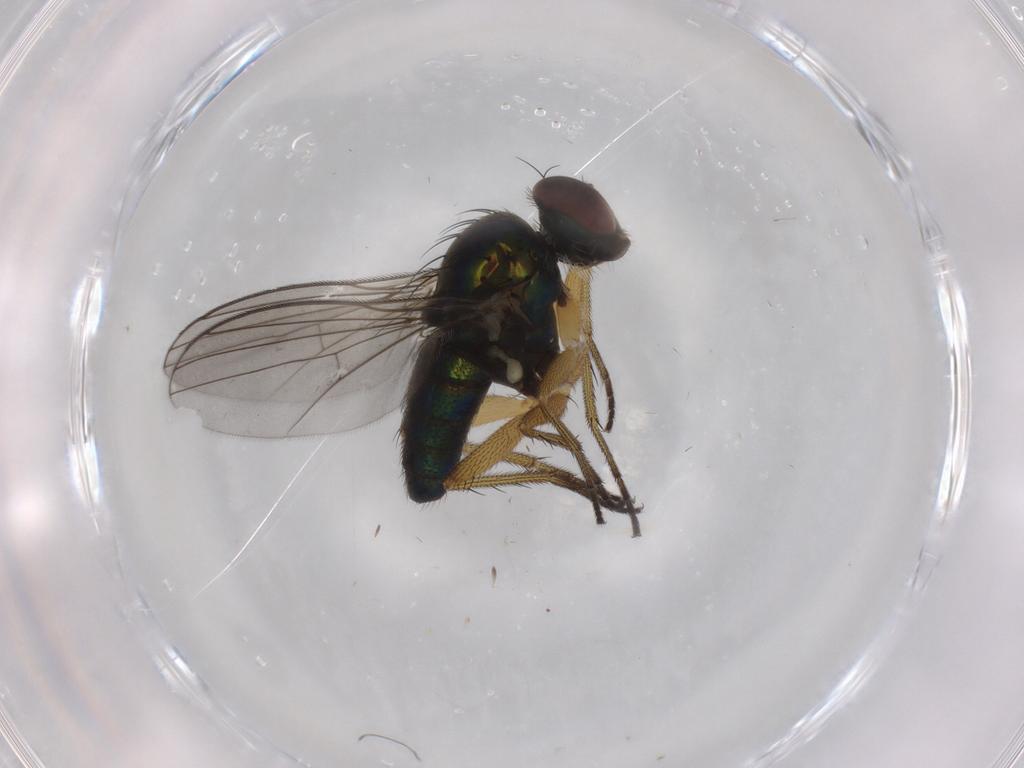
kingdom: Animalia
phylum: Arthropoda
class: Insecta
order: Diptera
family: Dolichopodidae
